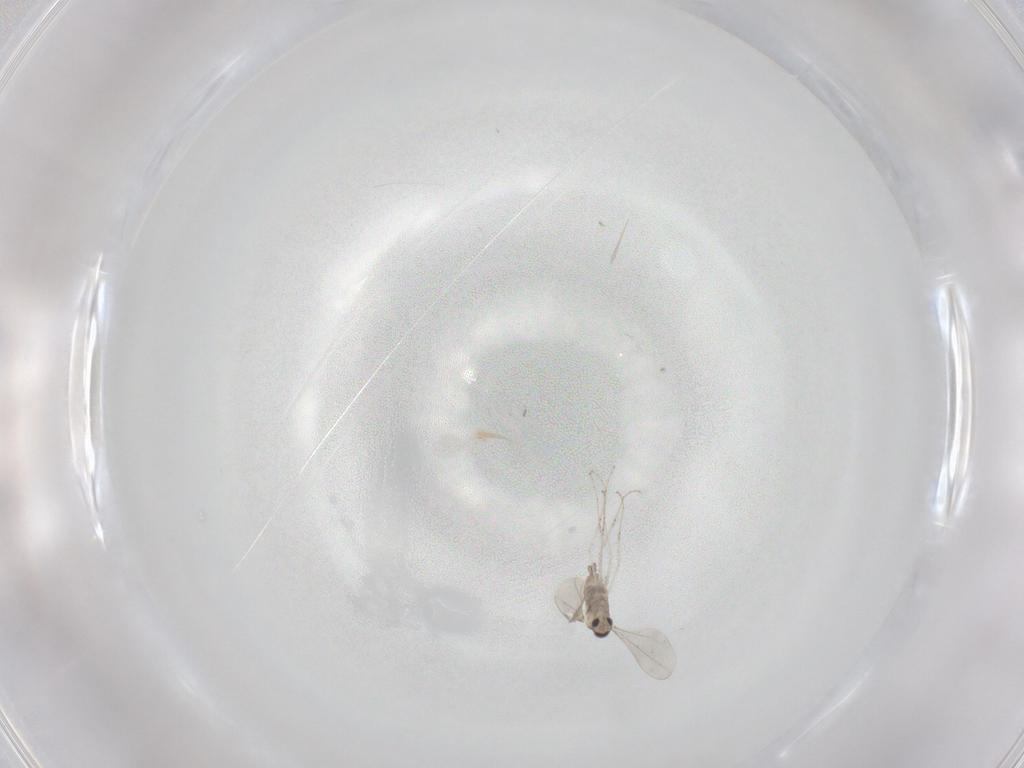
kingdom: Animalia
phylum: Arthropoda
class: Insecta
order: Diptera
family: Cecidomyiidae
